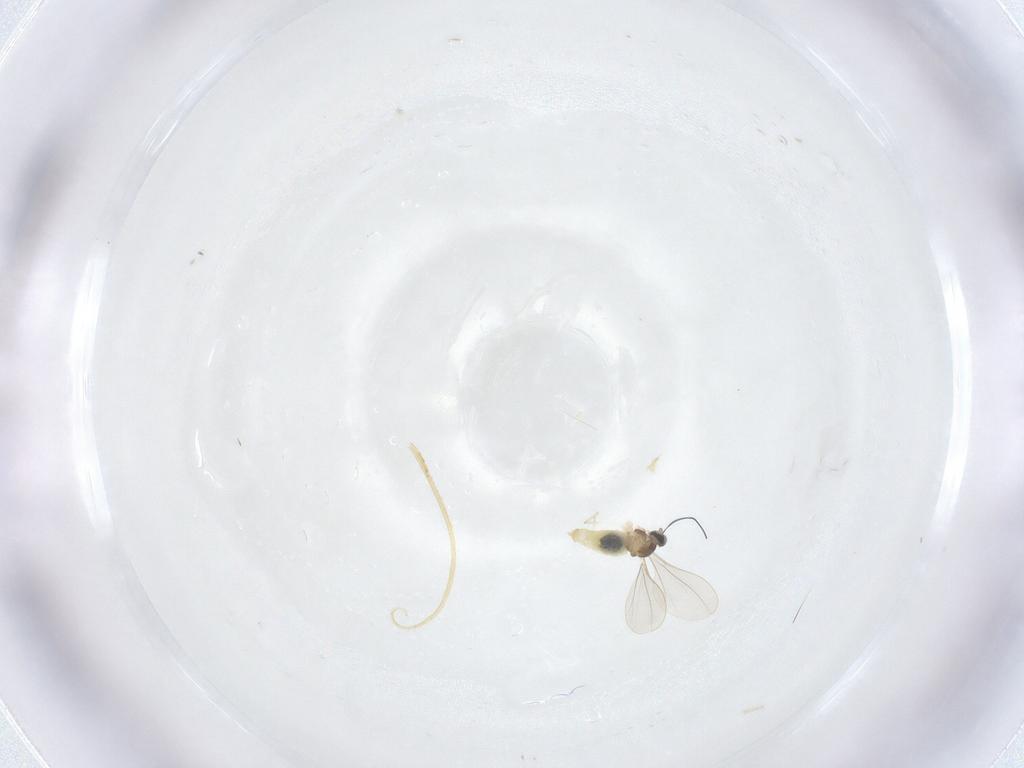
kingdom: Animalia
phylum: Arthropoda
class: Insecta
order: Diptera
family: Cecidomyiidae
